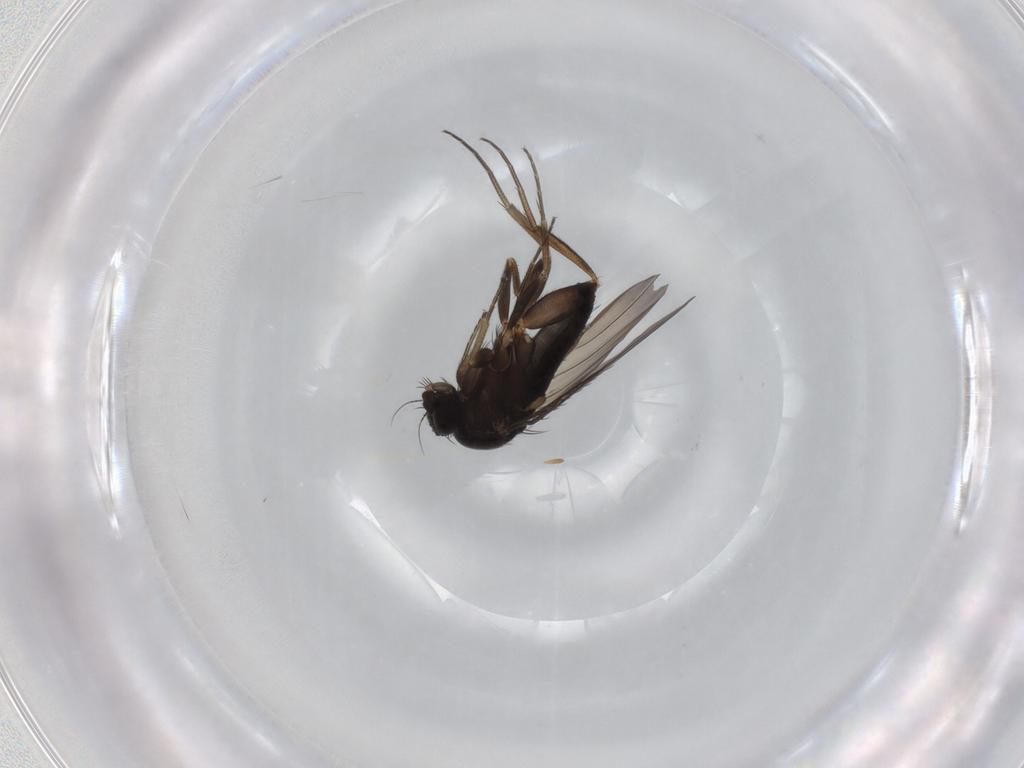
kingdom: Animalia
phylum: Arthropoda
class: Insecta
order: Diptera
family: Phoridae
